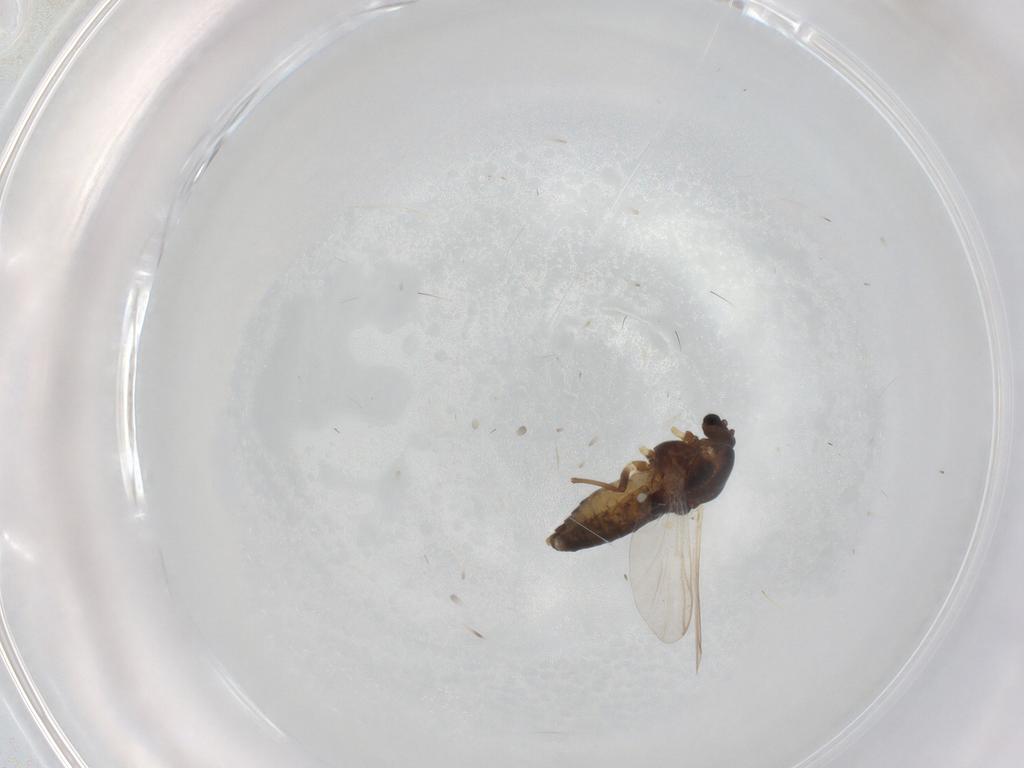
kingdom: Animalia
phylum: Arthropoda
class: Insecta
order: Diptera
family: Chironomidae
